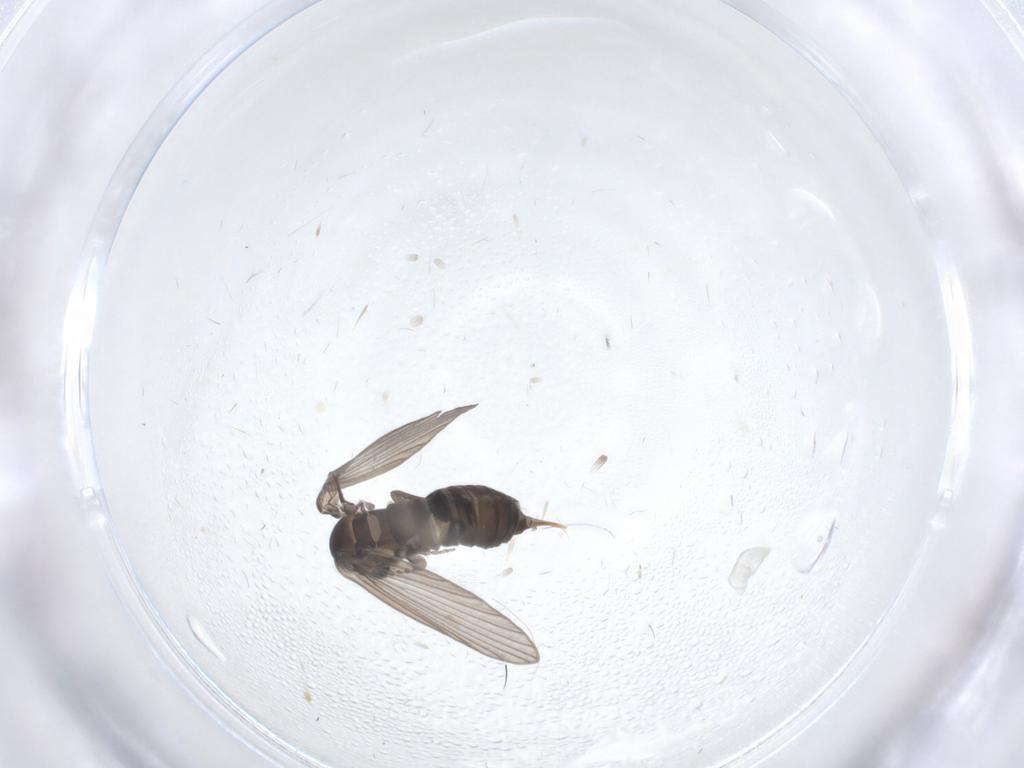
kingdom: Animalia
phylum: Arthropoda
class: Insecta
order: Diptera
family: Psychodidae
